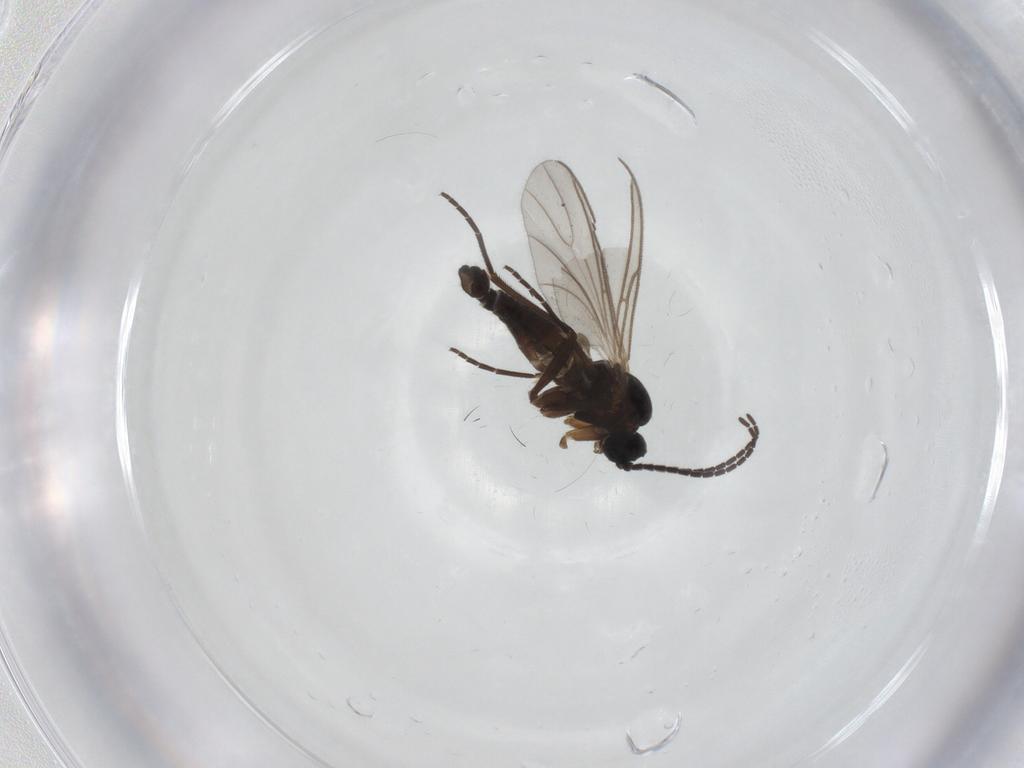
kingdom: Animalia
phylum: Arthropoda
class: Insecta
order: Diptera
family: Sciaridae
